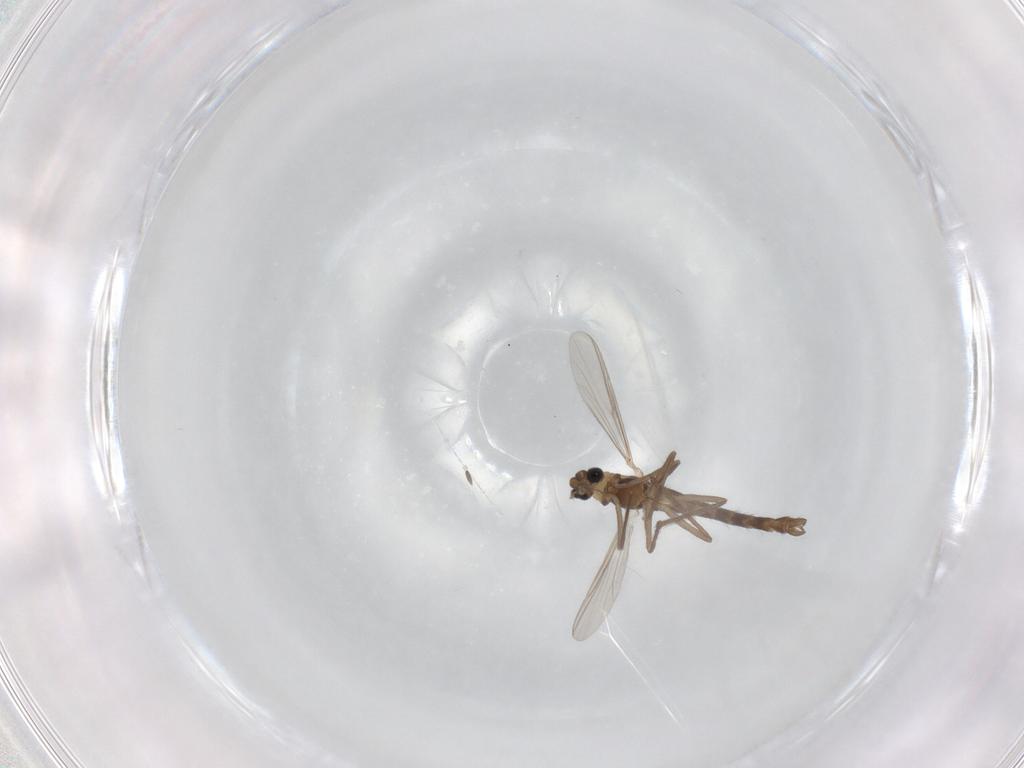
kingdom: Animalia
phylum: Arthropoda
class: Insecta
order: Diptera
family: Chironomidae
